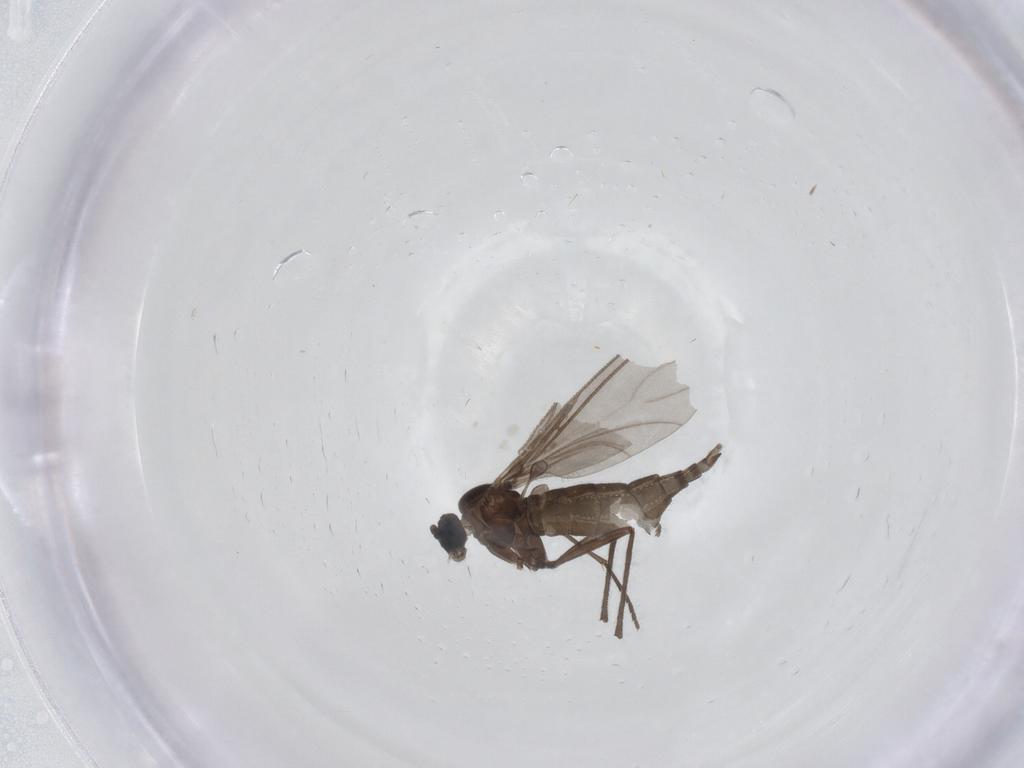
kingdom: Animalia
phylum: Arthropoda
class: Insecta
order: Diptera
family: Sciaridae
